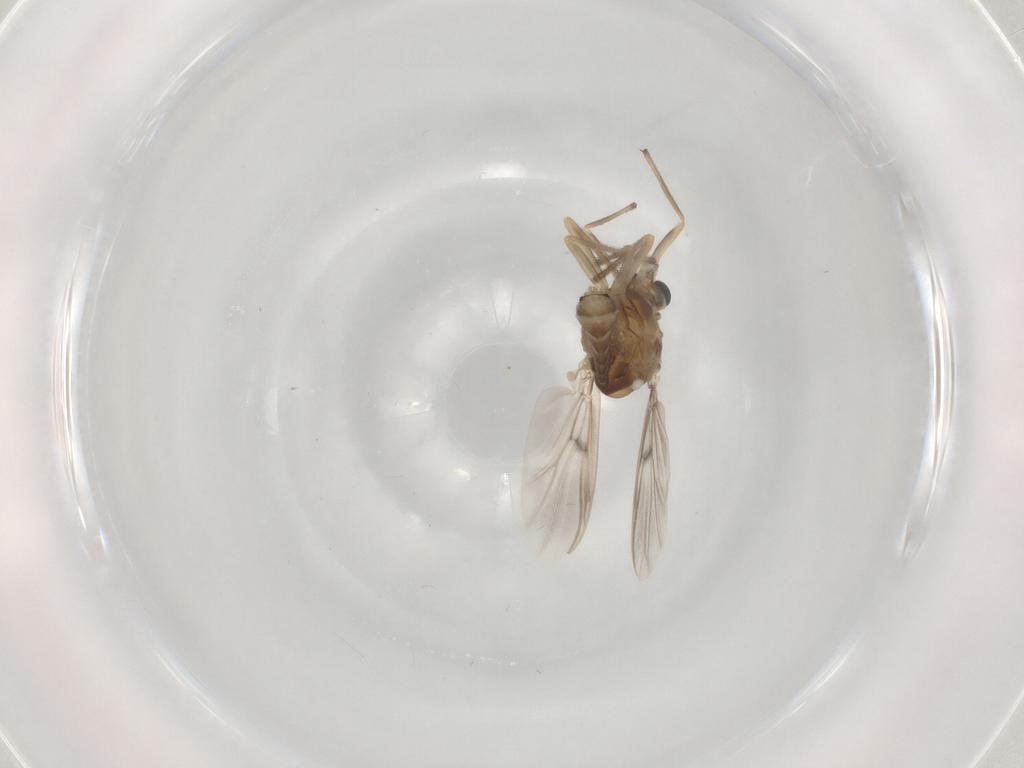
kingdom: Animalia
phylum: Arthropoda
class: Insecta
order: Diptera
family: Chironomidae
